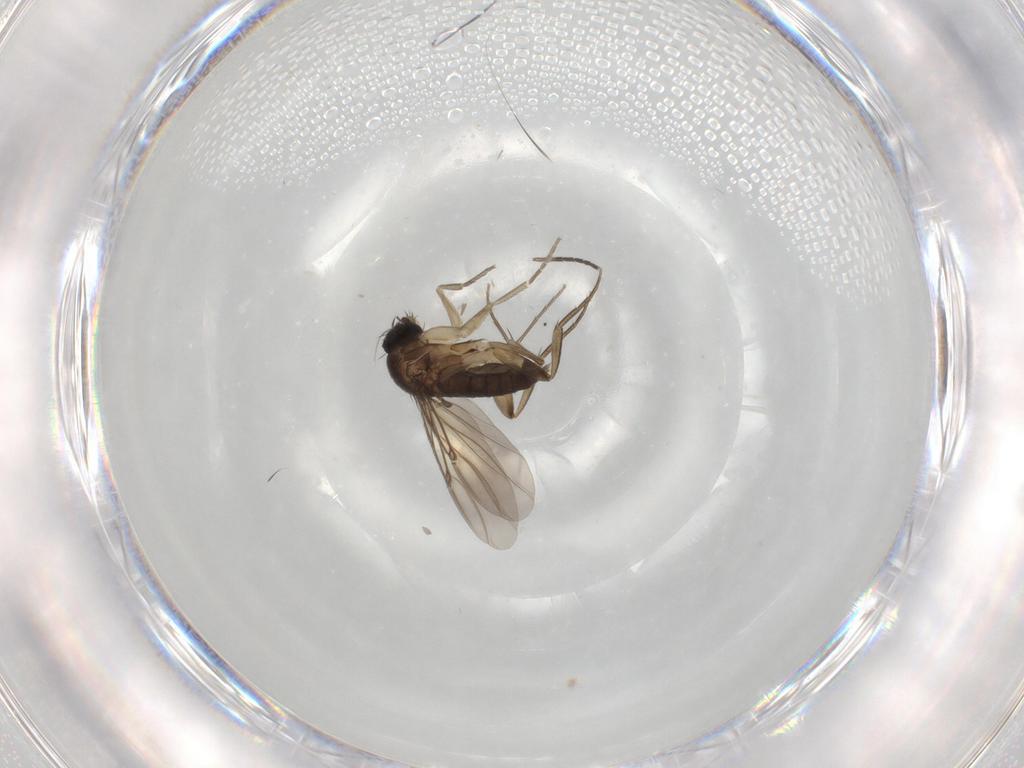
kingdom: Animalia
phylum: Arthropoda
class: Insecta
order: Diptera
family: Phoridae
